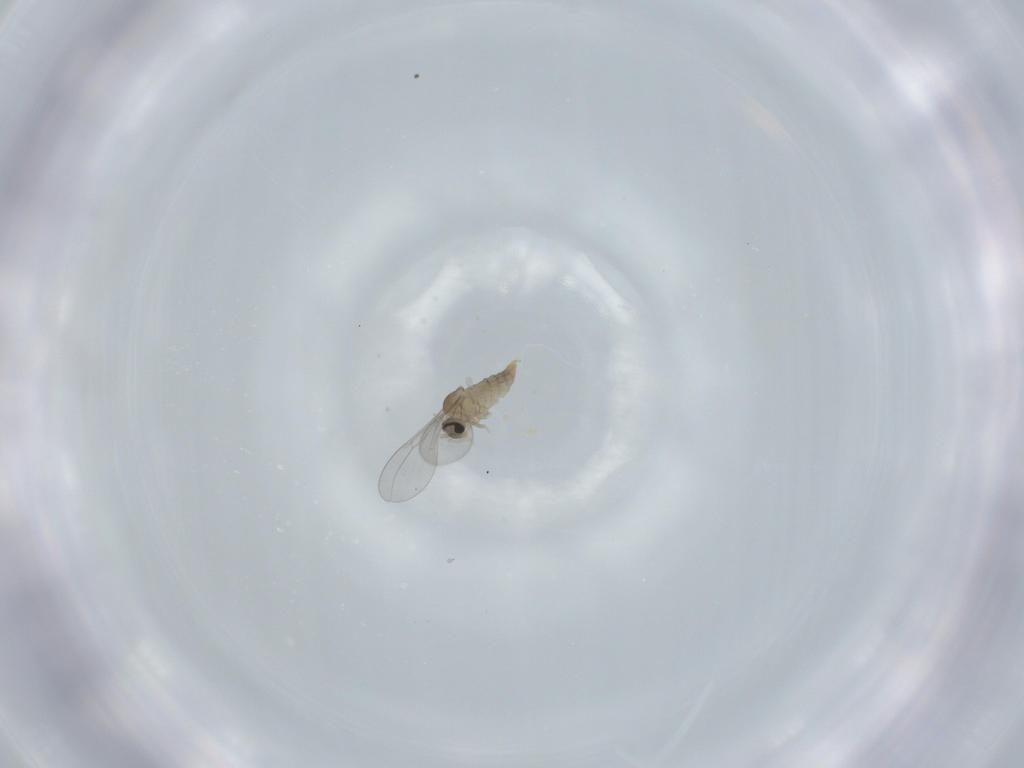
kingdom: Animalia
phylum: Arthropoda
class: Insecta
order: Diptera
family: Cecidomyiidae
